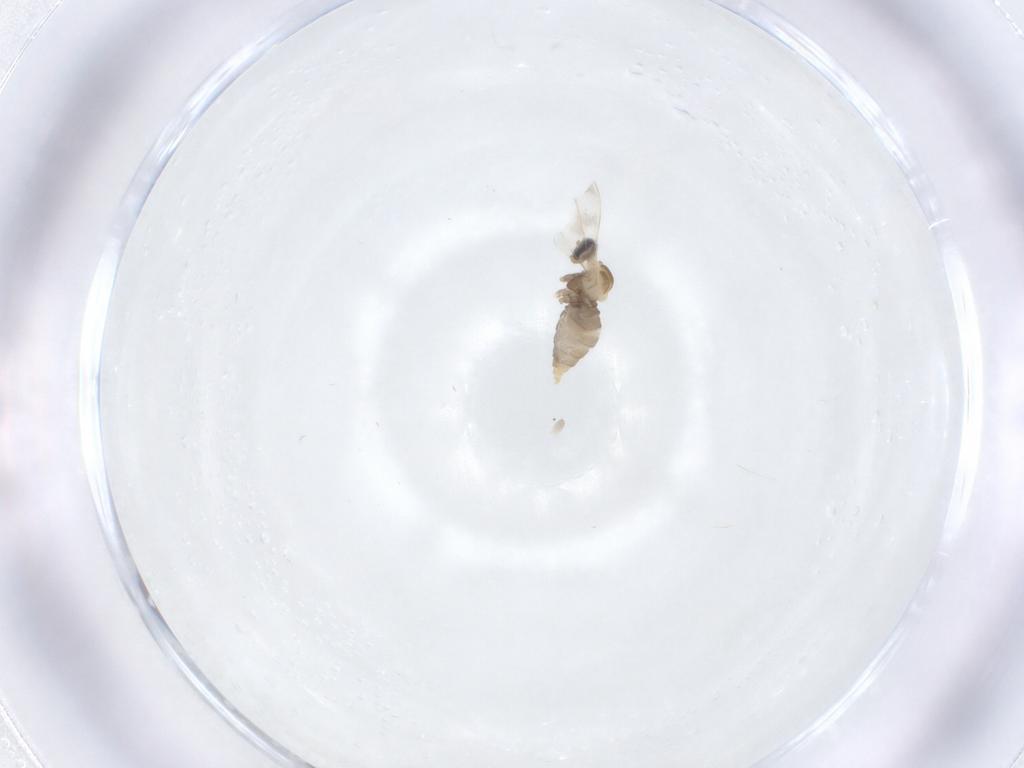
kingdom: Animalia
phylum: Arthropoda
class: Insecta
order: Diptera
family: Cecidomyiidae
